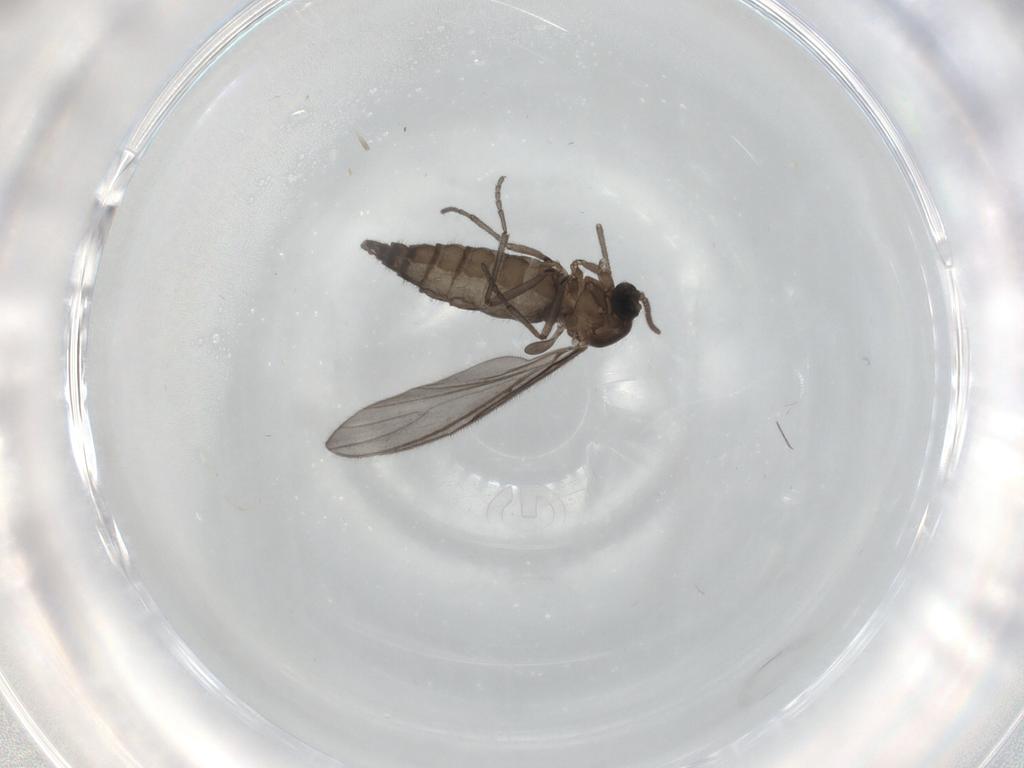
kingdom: Animalia
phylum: Arthropoda
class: Insecta
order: Diptera
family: Sciaridae
